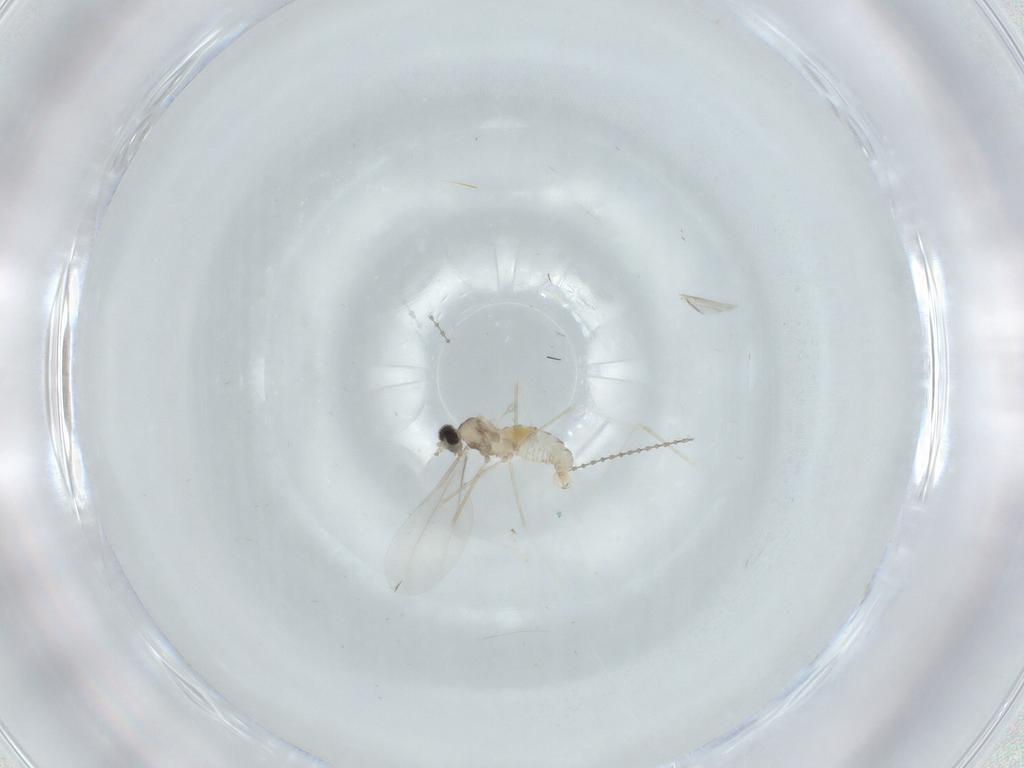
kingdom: Animalia
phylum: Arthropoda
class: Insecta
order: Diptera
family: Cecidomyiidae
